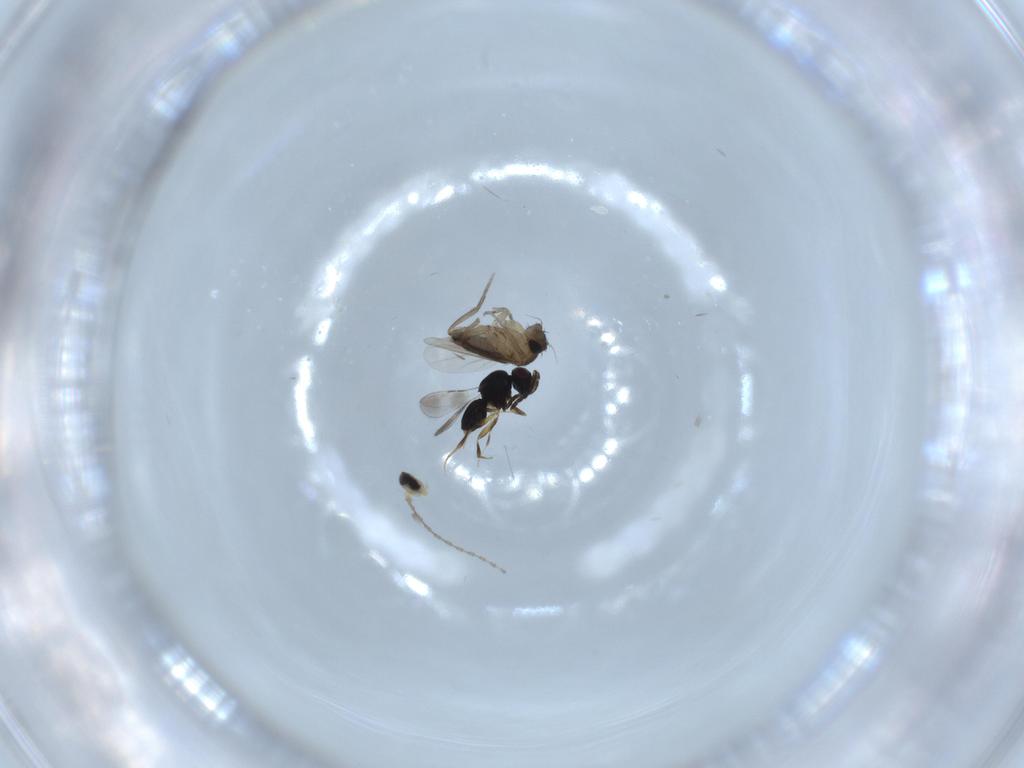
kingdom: Animalia
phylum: Arthropoda
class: Insecta
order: Diptera
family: Phoridae
